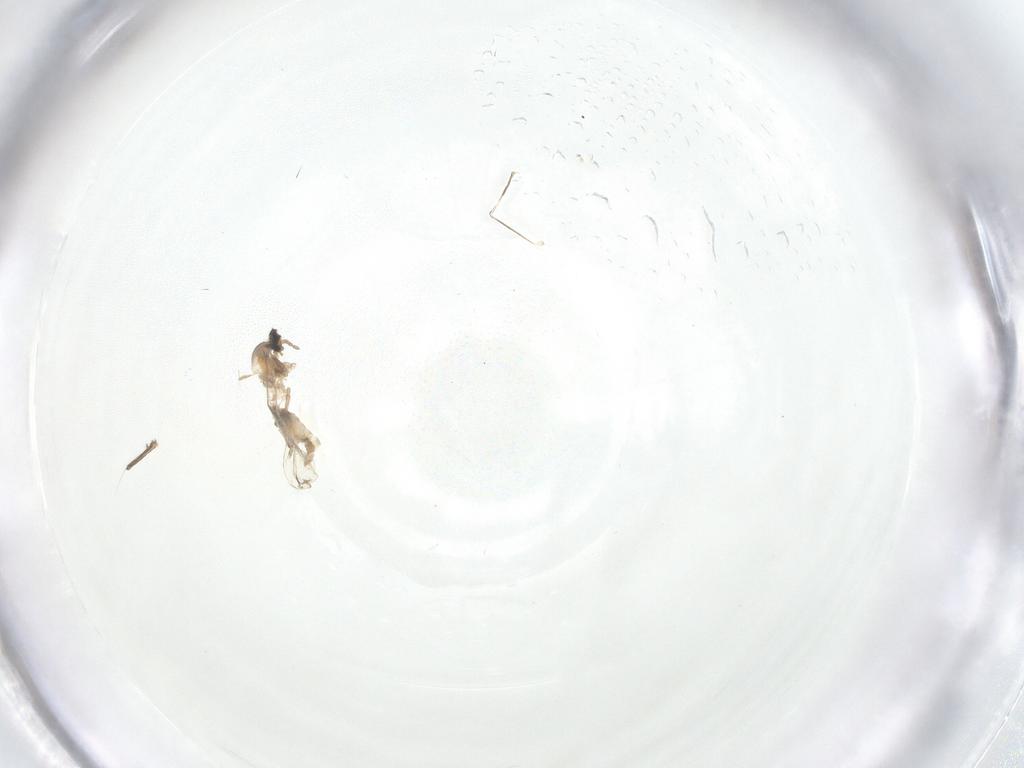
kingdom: Animalia
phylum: Arthropoda
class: Insecta
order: Diptera
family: Cecidomyiidae
